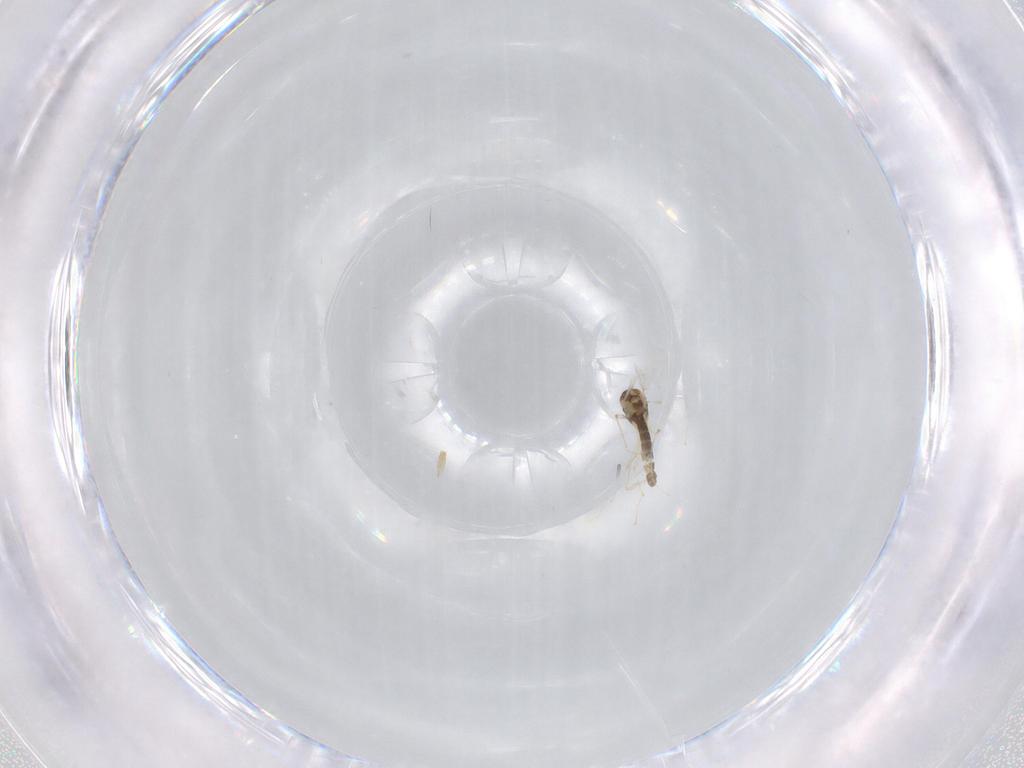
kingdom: Animalia
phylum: Arthropoda
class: Insecta
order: Diptera
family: Chironomidae
